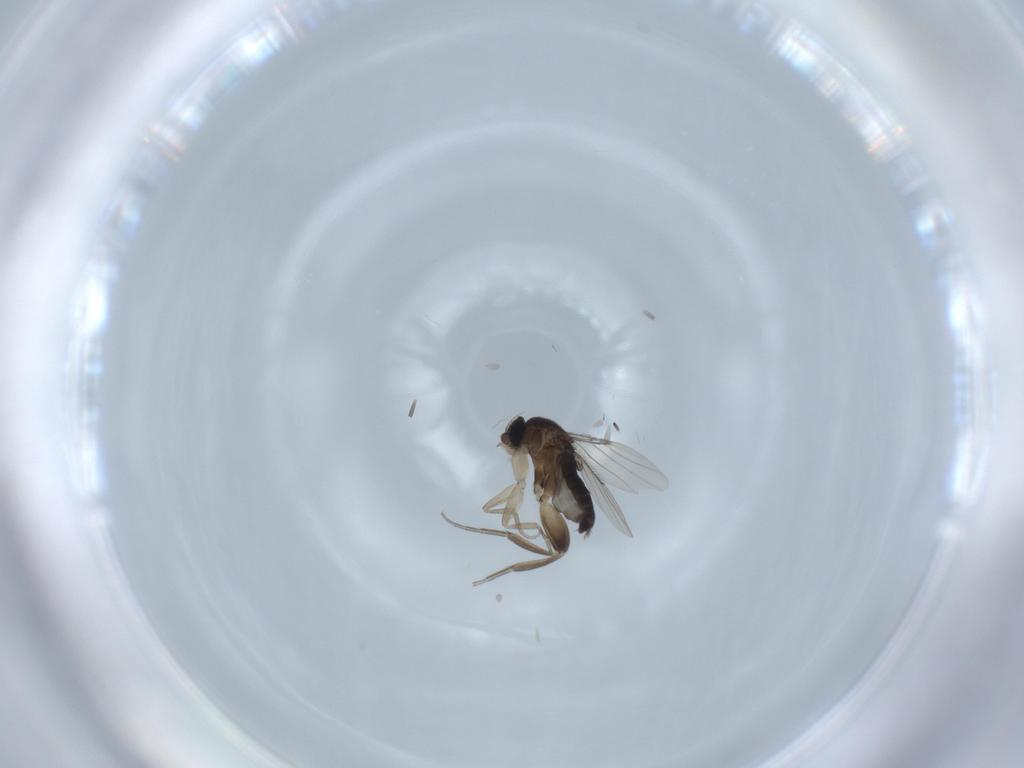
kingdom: Animalia
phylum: Arthropoda
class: Insecta
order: Diptera
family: Phoridae
